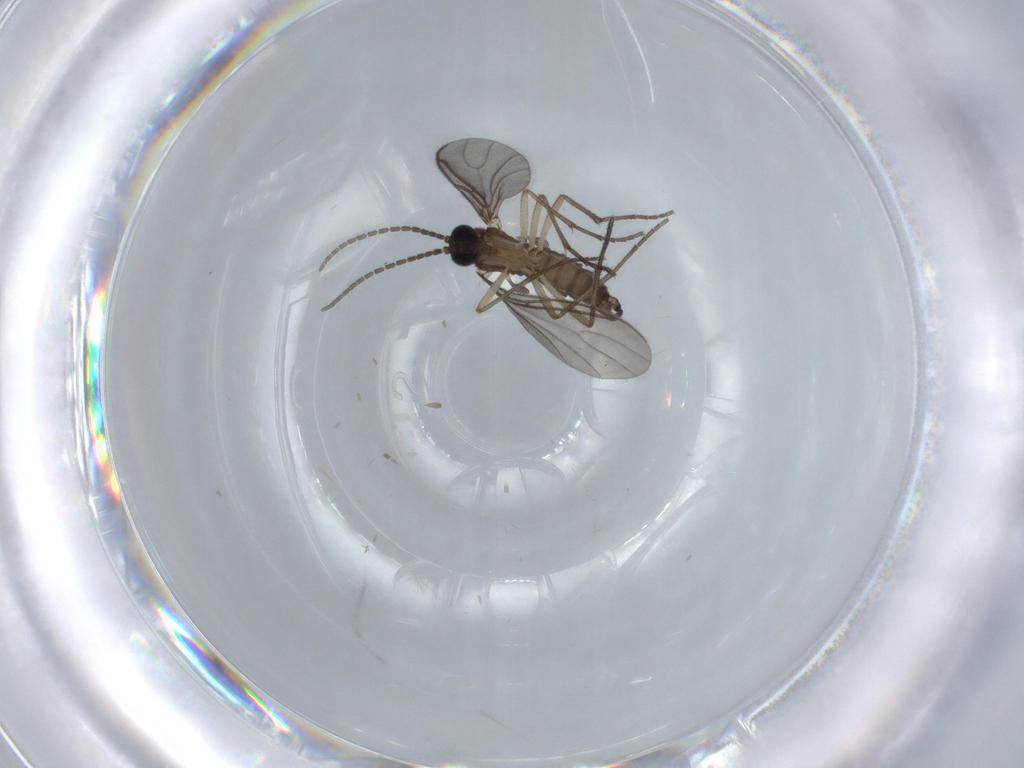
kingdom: Animalia
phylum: Arthropoda
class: Insecta
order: Diptera
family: Sciaridae
